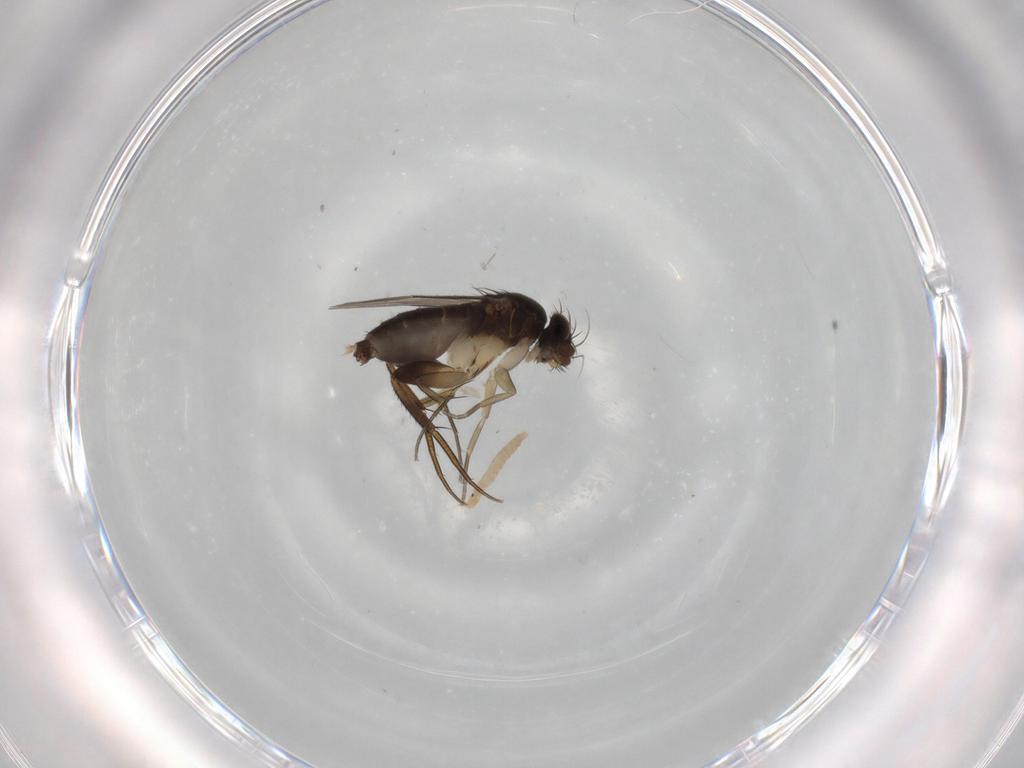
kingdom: Animalia
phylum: Arthropoda
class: Insecta
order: Diptera
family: Phoridae
